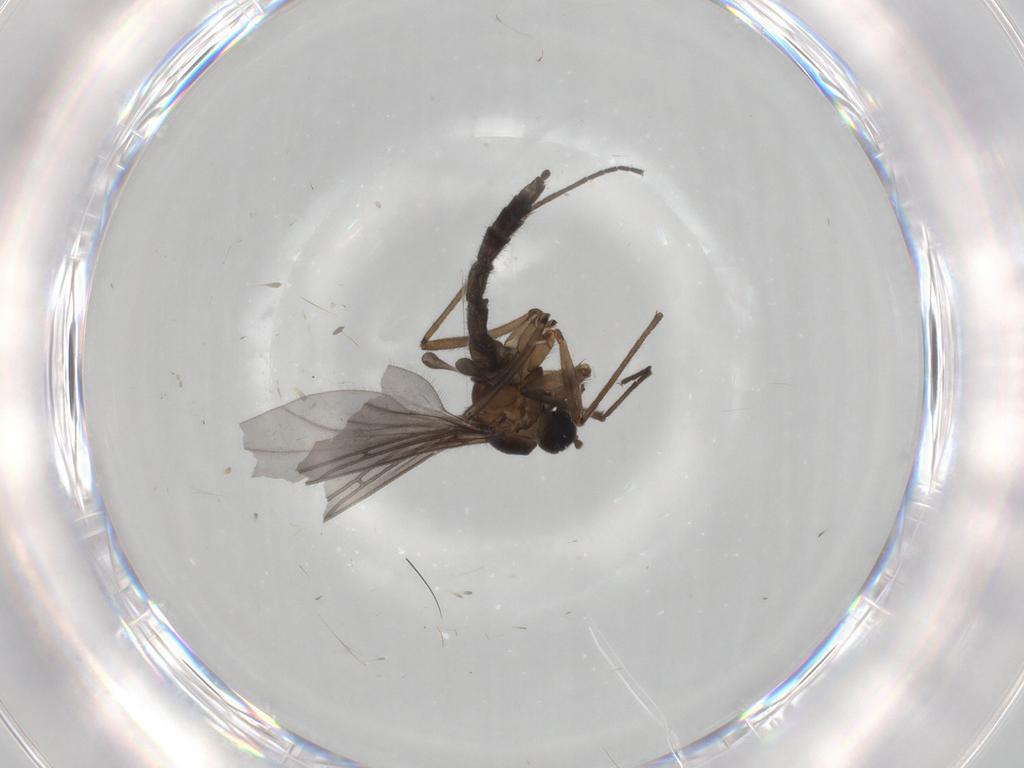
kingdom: Animalia
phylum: Arthropoda
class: Insecta
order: Diptera
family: Sciaridae
